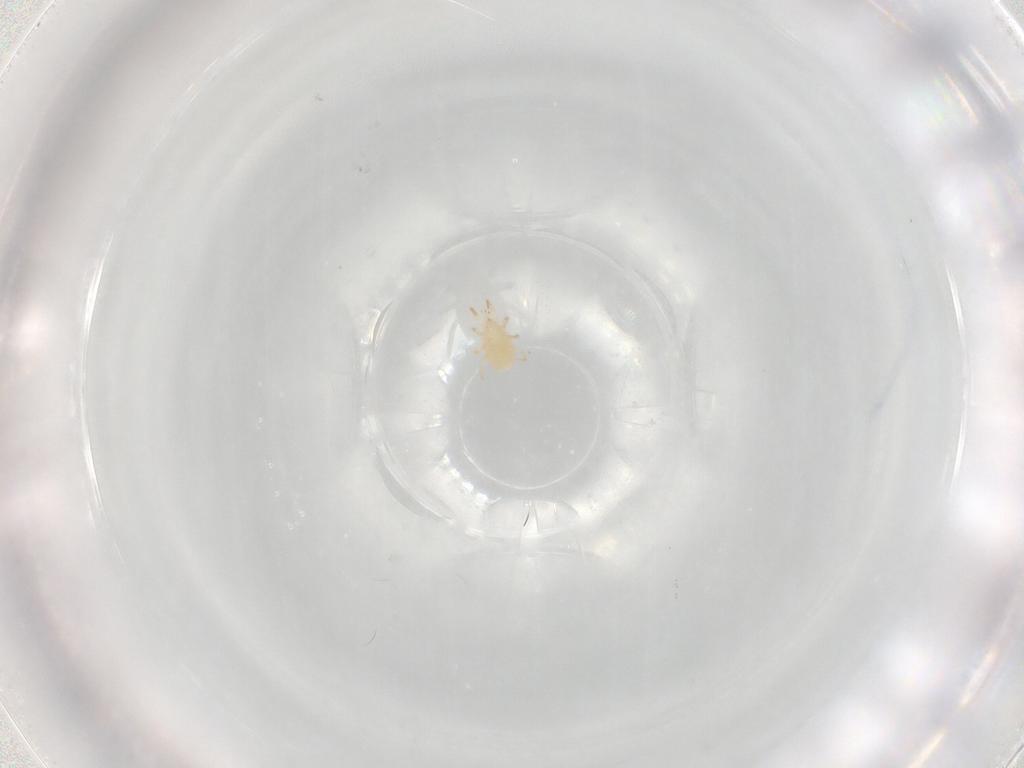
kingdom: Animalia
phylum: Arthropoda
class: Arachnida
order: Mesostigmata
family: Phytoseiidae
